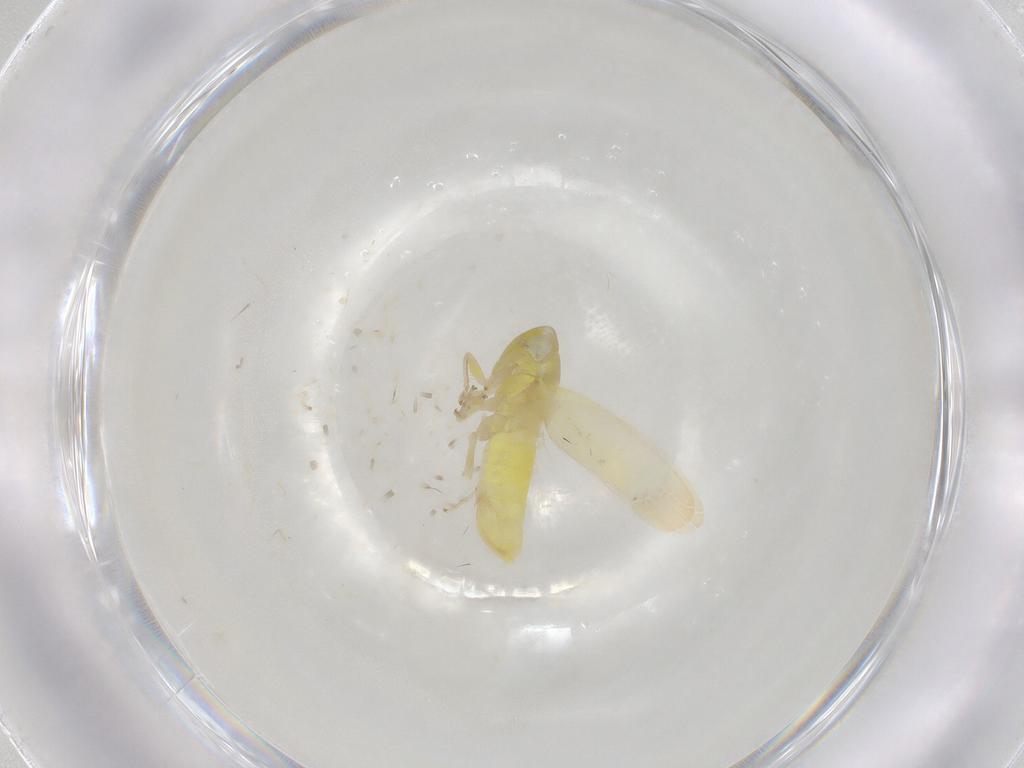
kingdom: Animalia
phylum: Arthropoda
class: Insecta
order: Hemiptera
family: Cicadellidae
